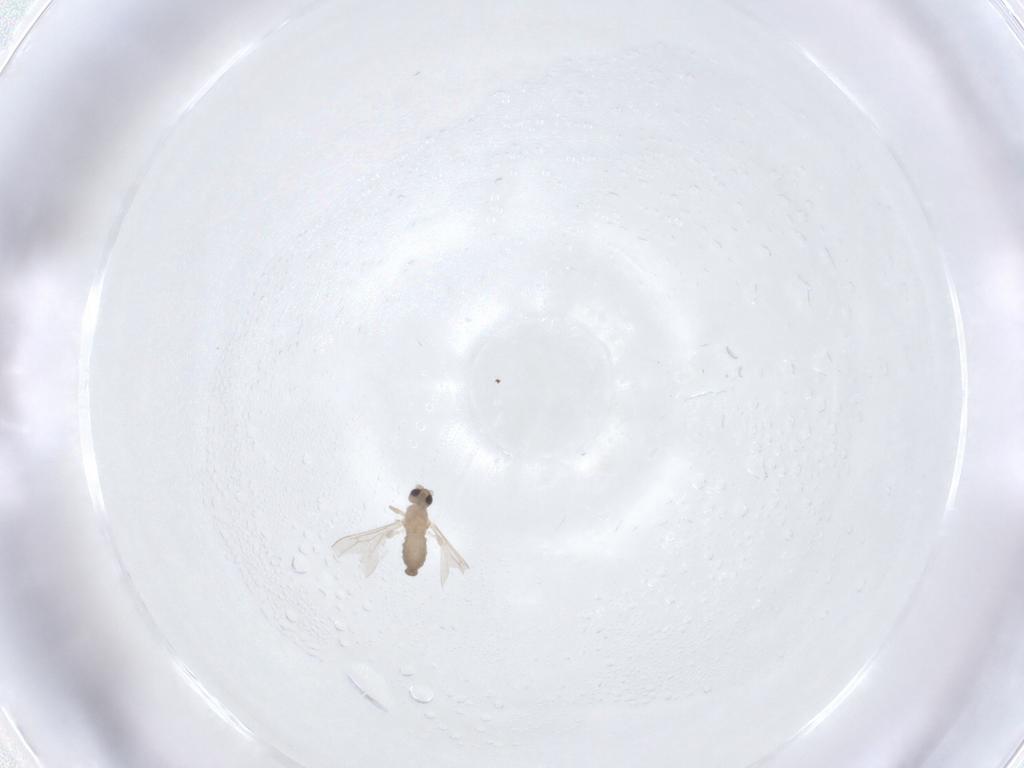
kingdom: Animalia
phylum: Arthropoda
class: Insecta
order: Diptera
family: Cecidomyiidae
